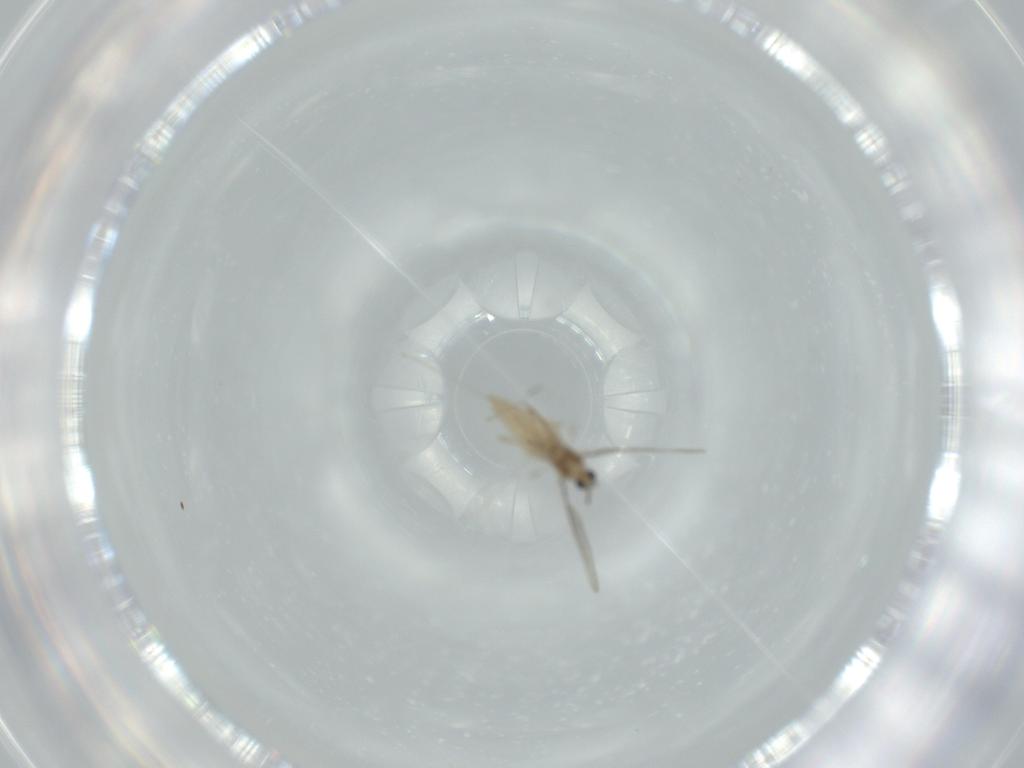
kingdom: Animalia
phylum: Arthropoda
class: Insecta
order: Diptera
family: Cecidomyiidae
